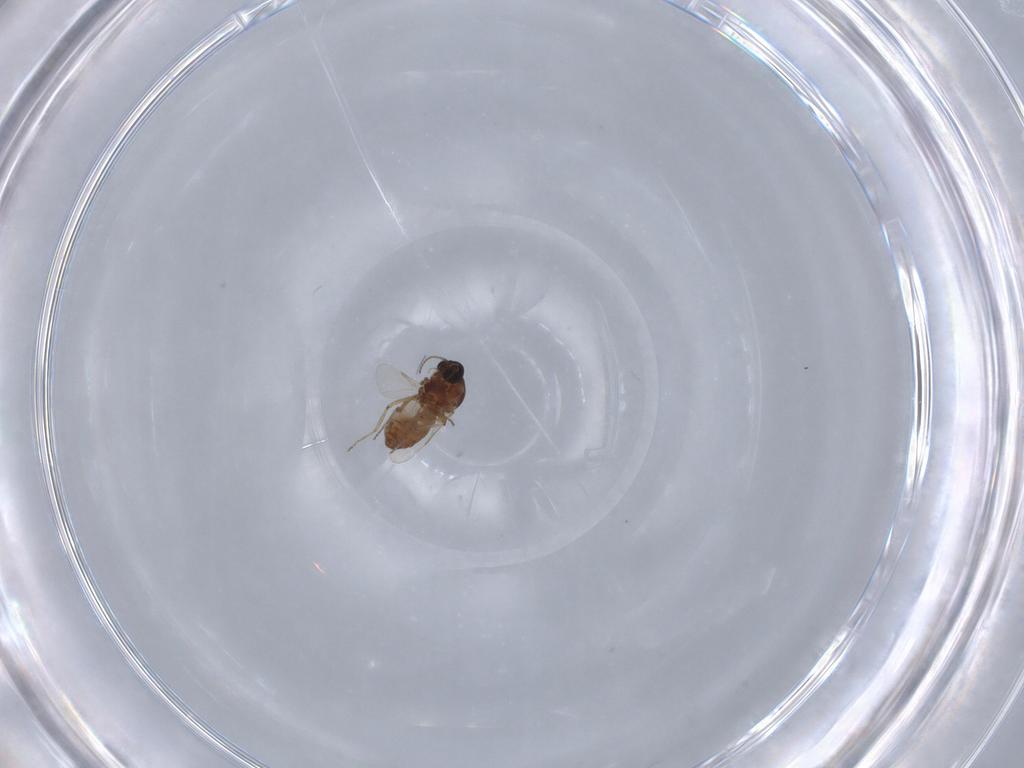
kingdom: Animalia
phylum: Arthropoda
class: Insecta
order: Diptera
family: Ceratopogonidae
